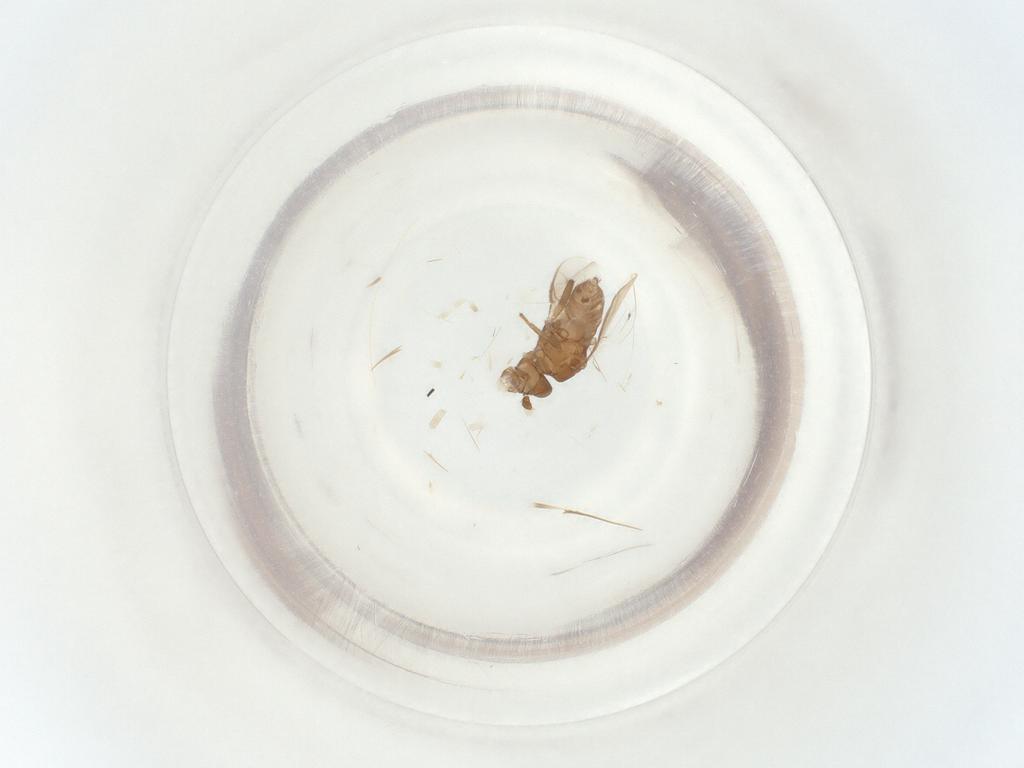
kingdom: Animalia
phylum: Arthropoda
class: Insecta
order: Diptera
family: Sphaeroceridae
